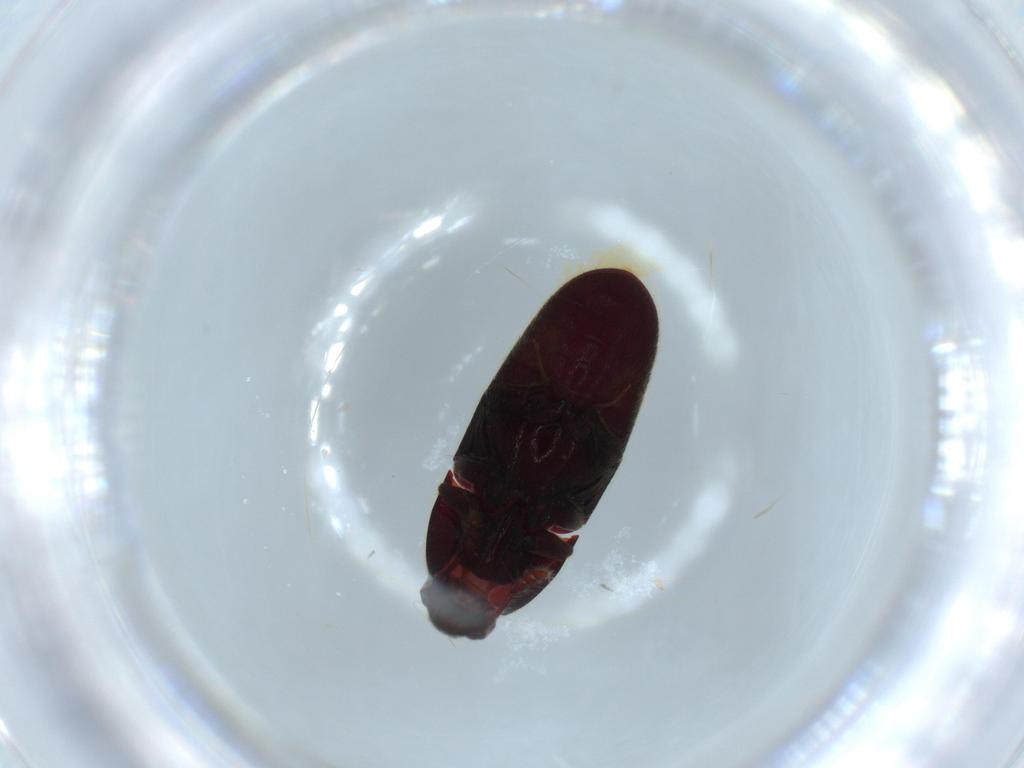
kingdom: Animalia
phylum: Arthropoda
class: Insecta
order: Coleoptera
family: Throscidae
